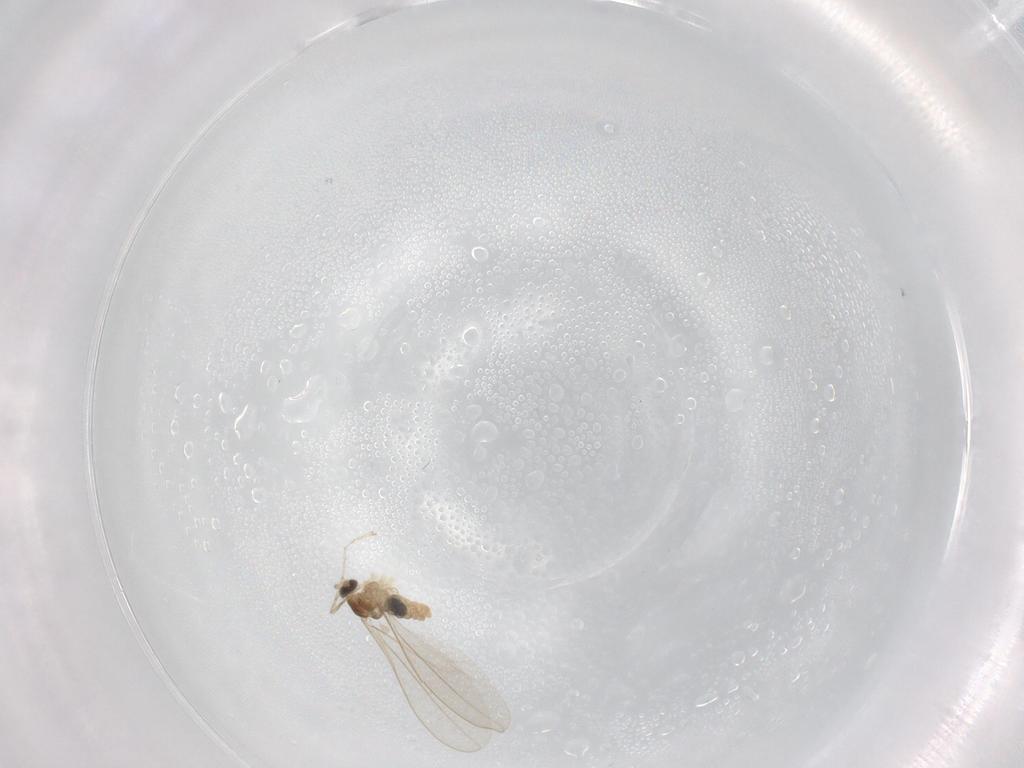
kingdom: Animalia
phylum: Arthropoda
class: Insecta
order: Diptera
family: Cecidomyiidae
